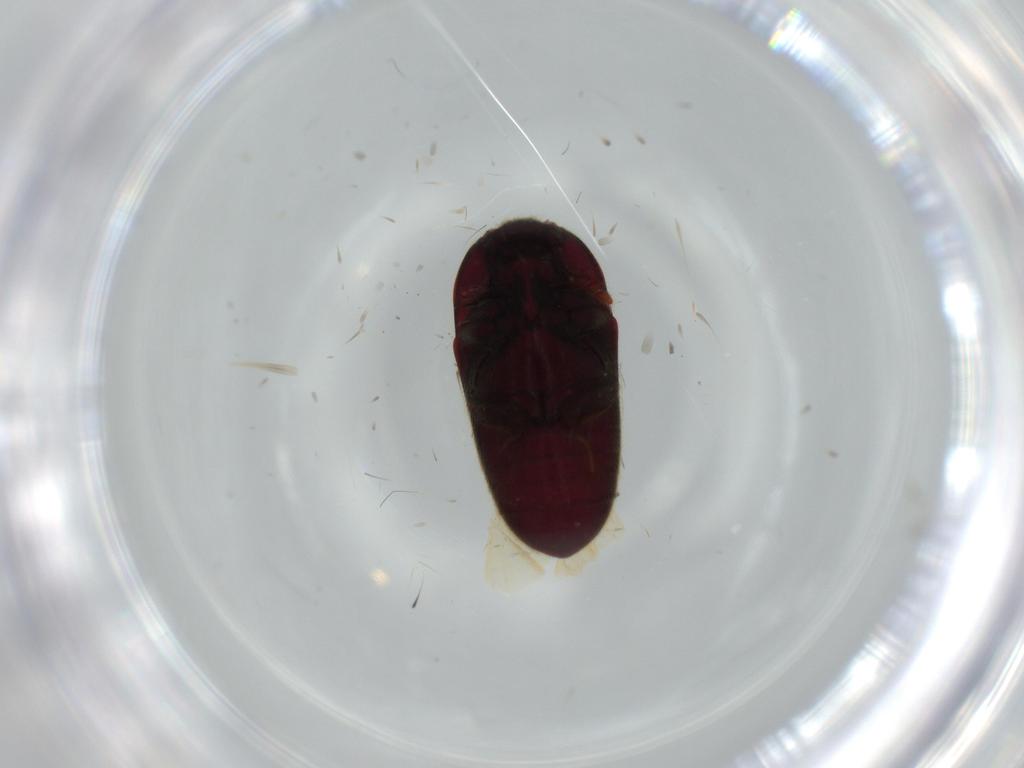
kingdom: Animalia
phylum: Arthropoda
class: Insecta
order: Coleoptera
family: Throscidae
